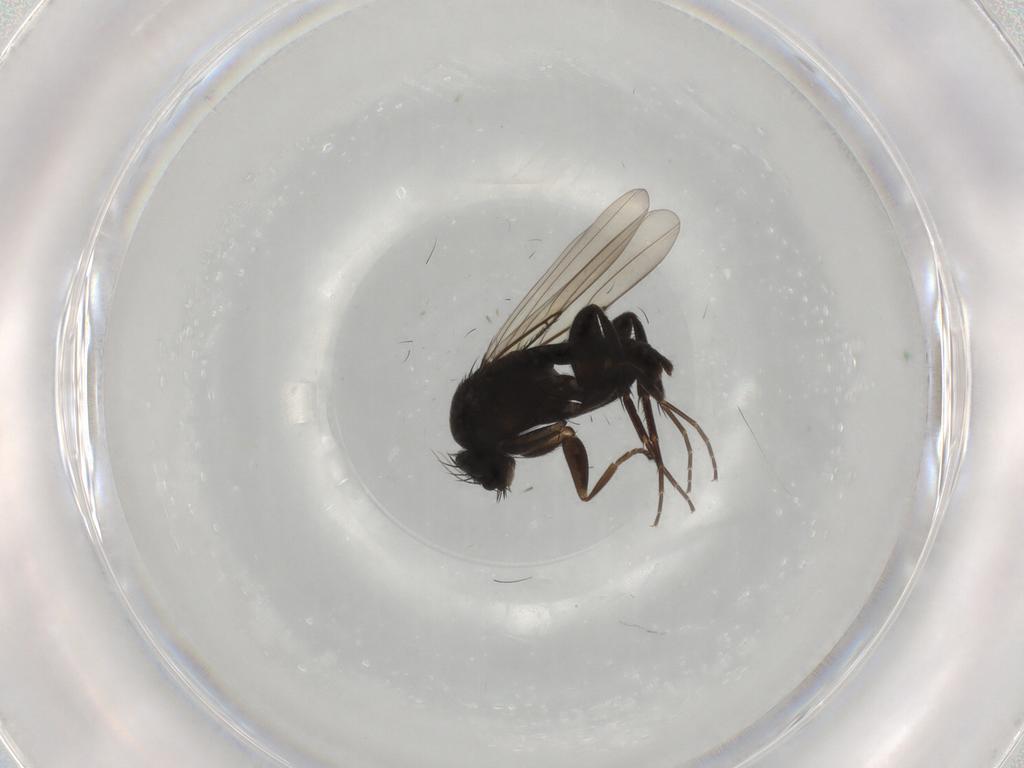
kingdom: Animalia
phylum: Arthropoda
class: Insecta
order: Diptera
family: Phoridae
